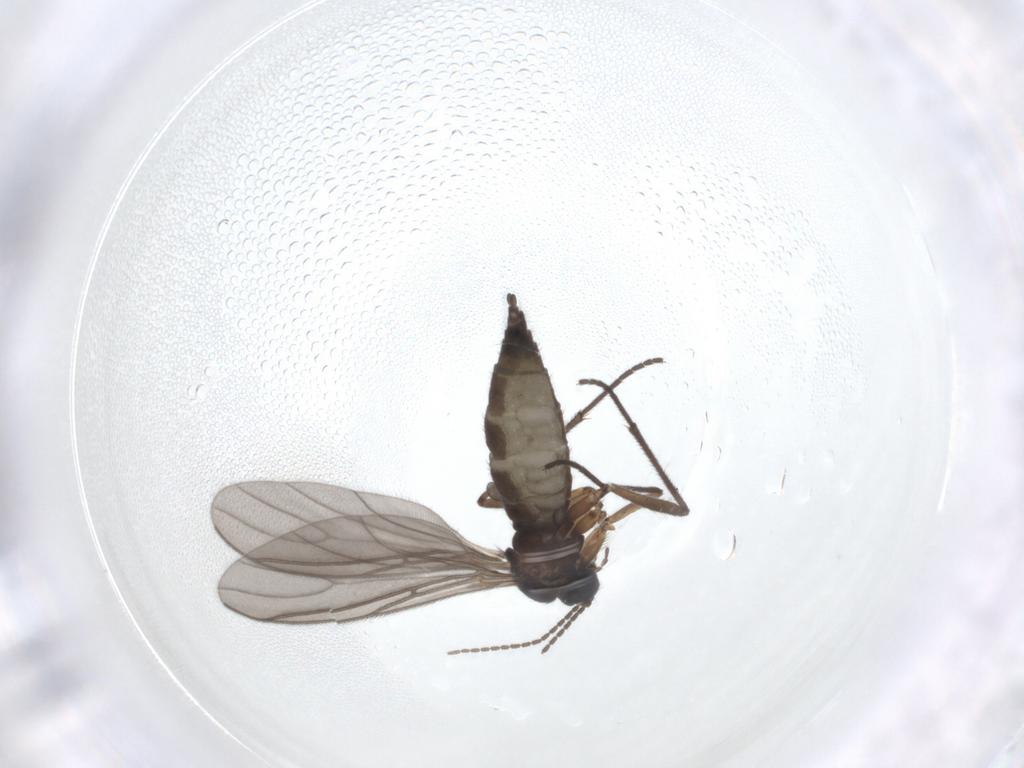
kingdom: Animalia
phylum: Arthropoda
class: Insecta
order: Diptera
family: Sciaridae
